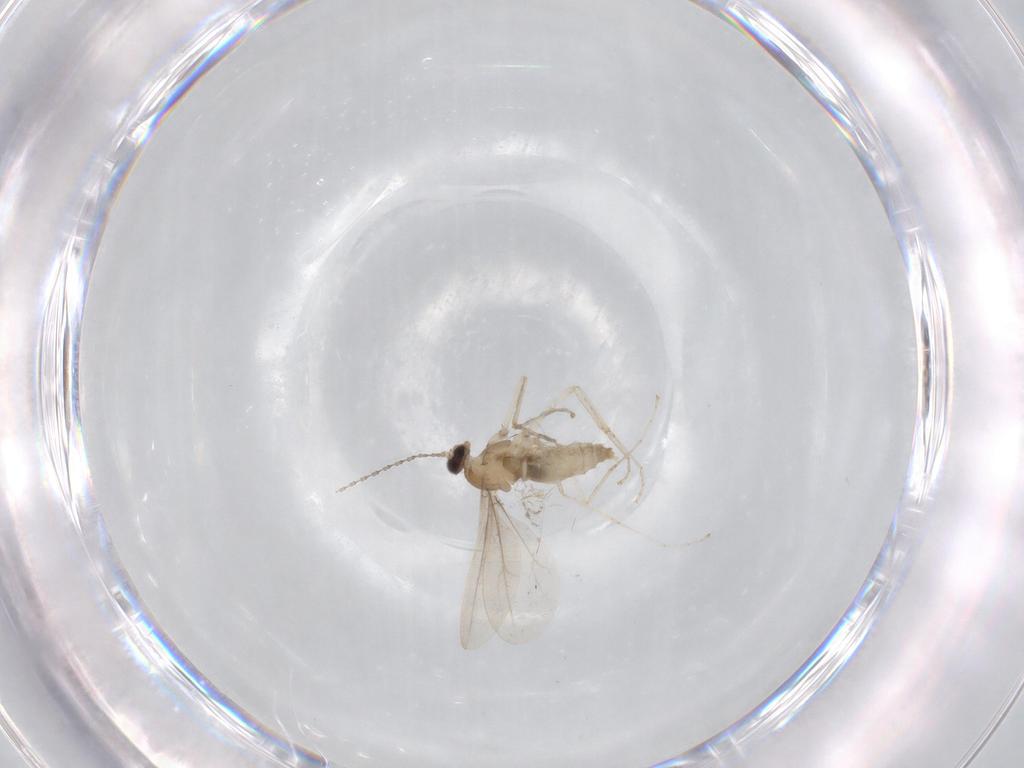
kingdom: Animalia
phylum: Arthropoda
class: Insecta
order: Diptera
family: Cecidomyiidae
